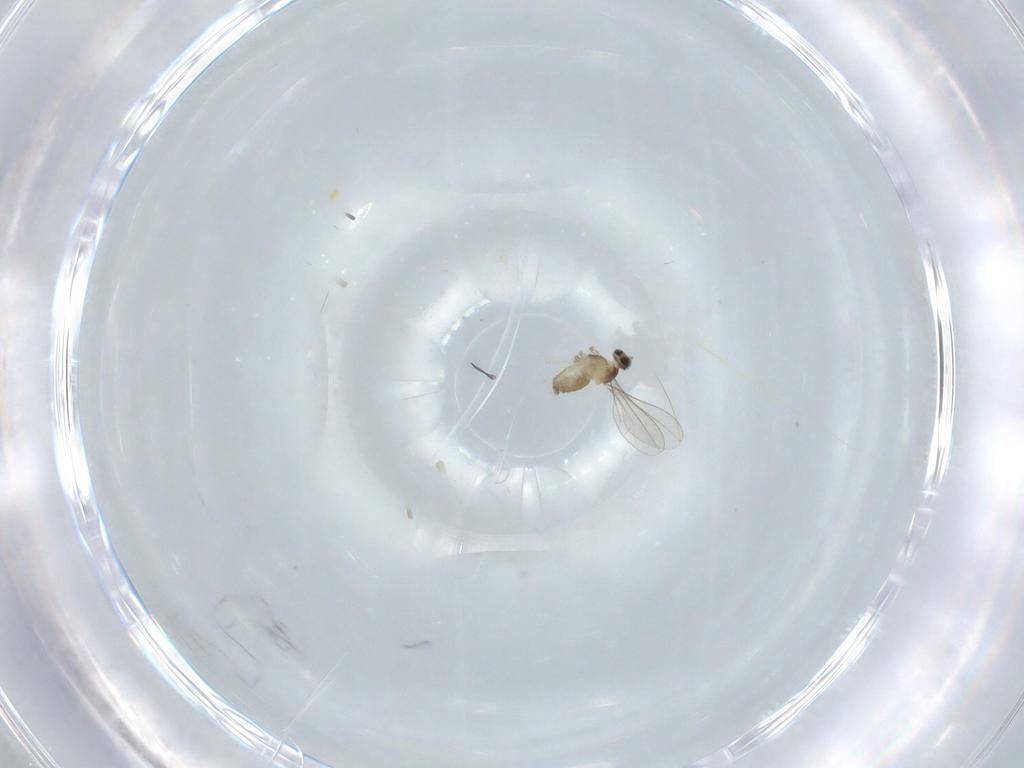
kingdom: Animalia
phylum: Arthropoda
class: Insecta
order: Diptera
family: Cecidomyiidae
